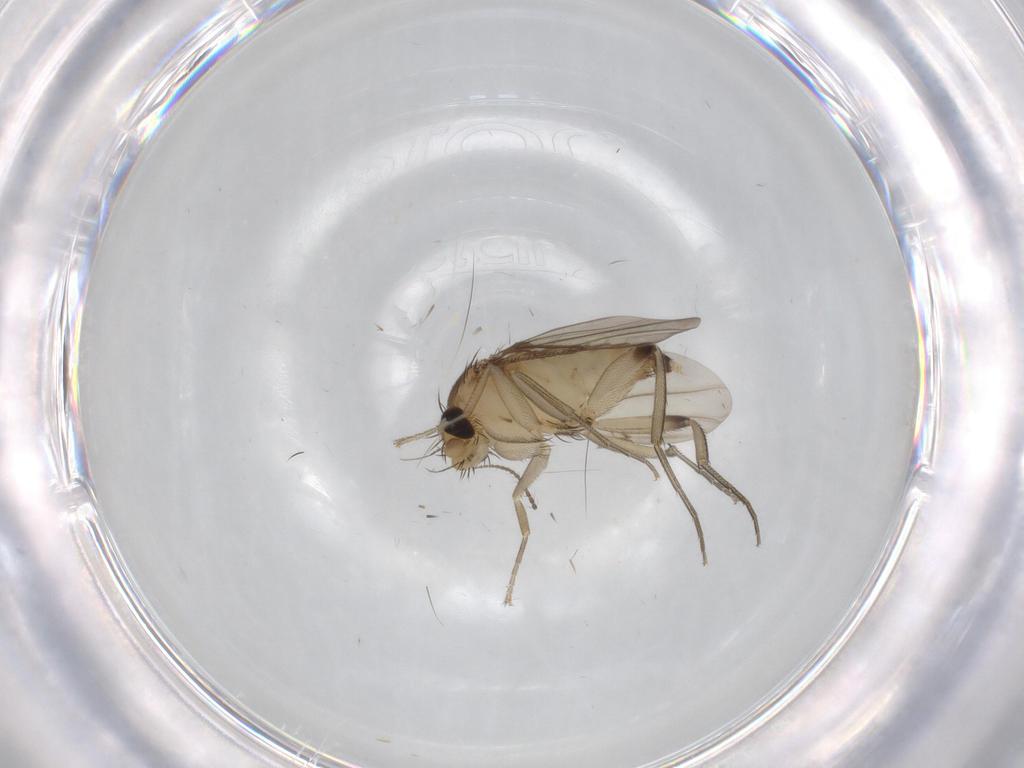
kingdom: Animalia
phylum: Arthropoda
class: Insecta
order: Diptera
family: Phoridae
